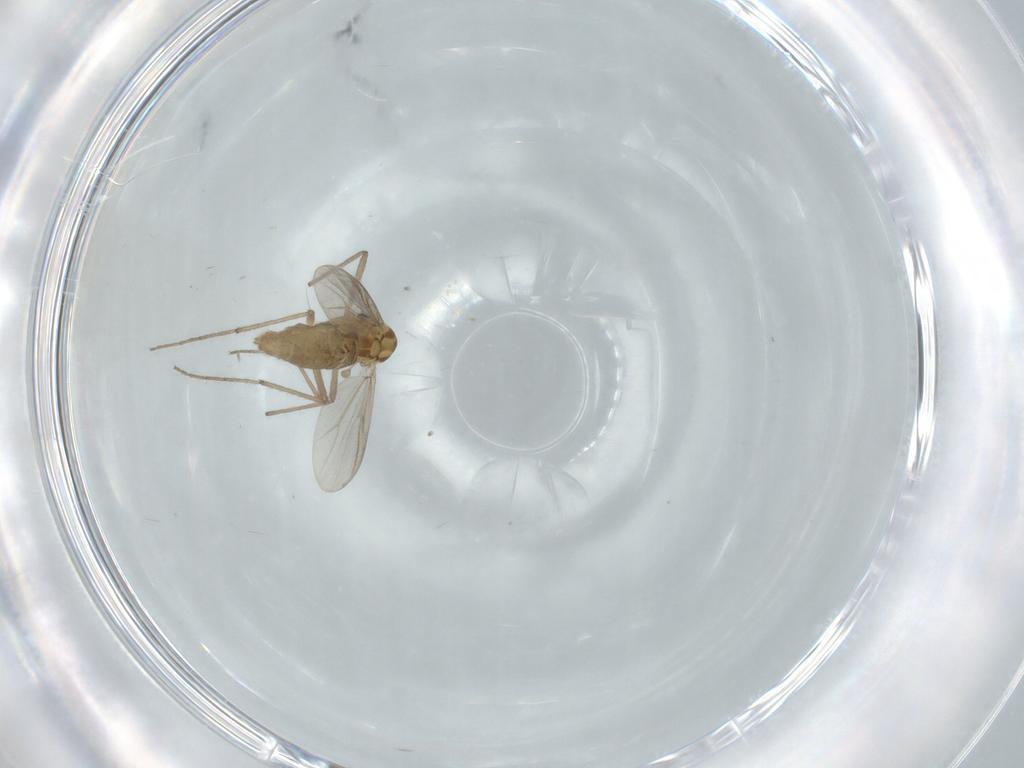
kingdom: Animalia
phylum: Arthropoda
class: Insecta
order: Diptera
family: Chironomidae
